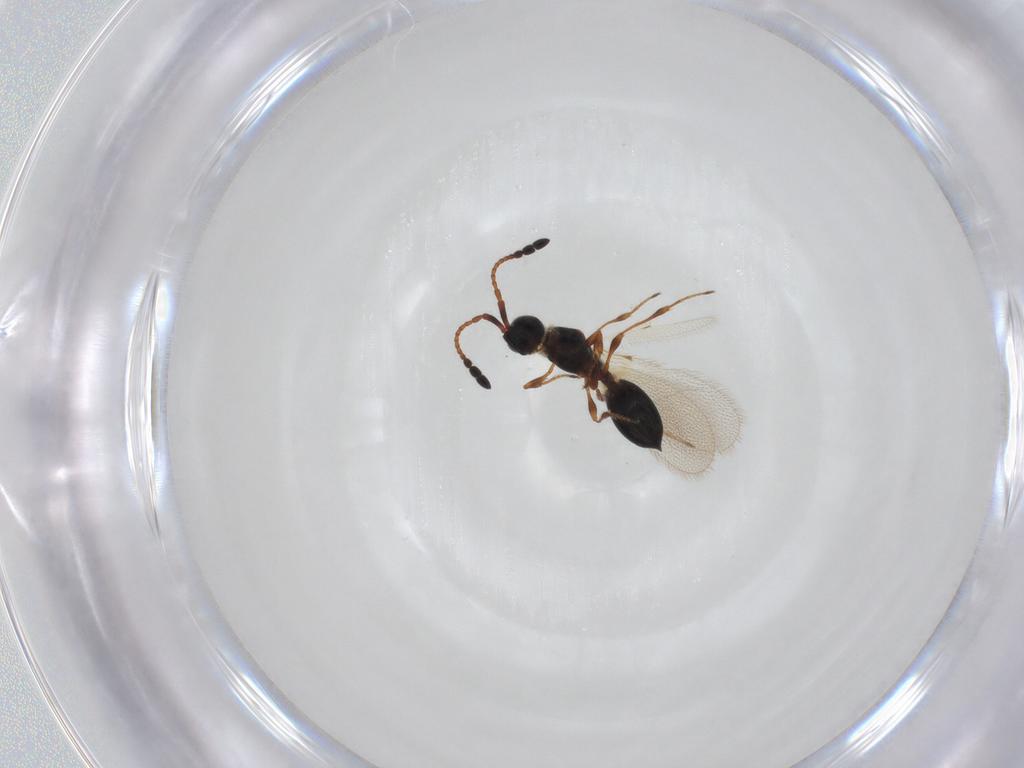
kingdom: Animalia
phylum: Arthropoda
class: Insecta
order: Hymenoptera
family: Diapriidae
